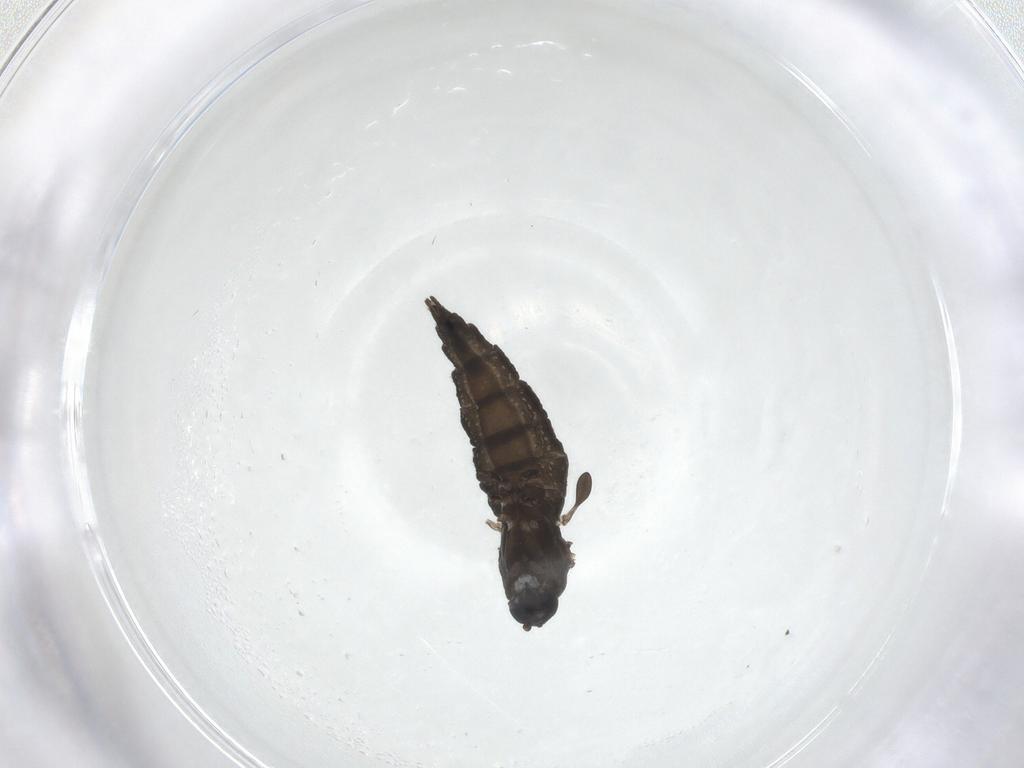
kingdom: Animalia
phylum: Arthropoda
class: Insecta
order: Diptera
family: Sciaridae
